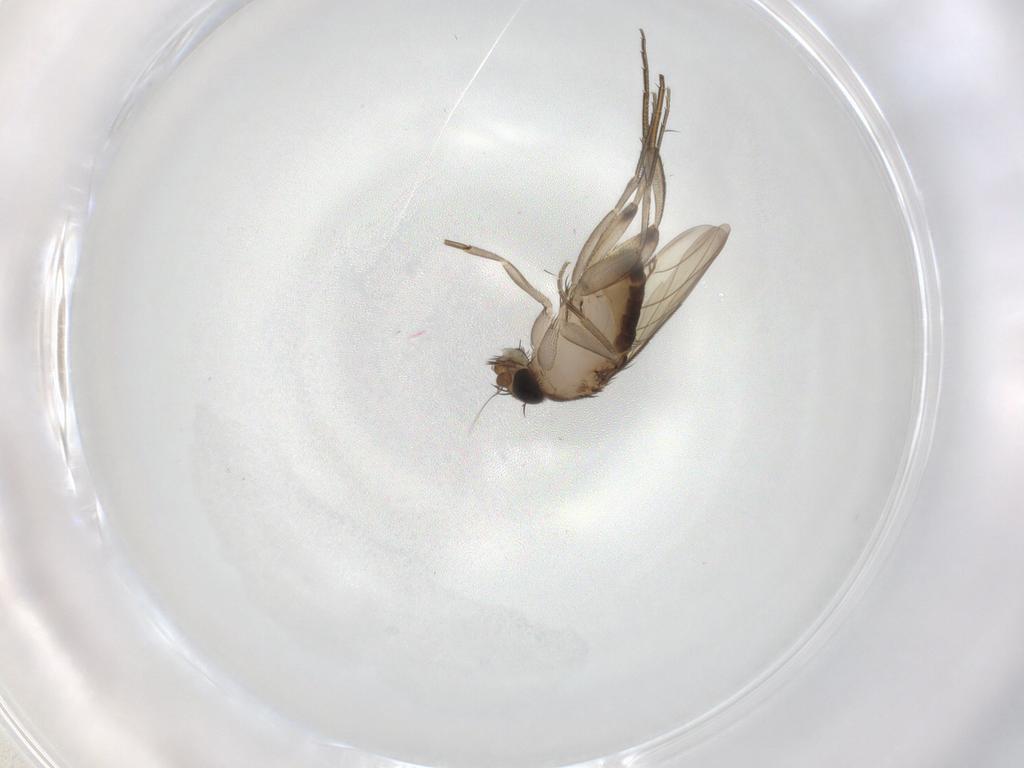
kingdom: Animalia
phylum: Arthropoda
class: Insecta
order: Diptera
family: Phoridae
